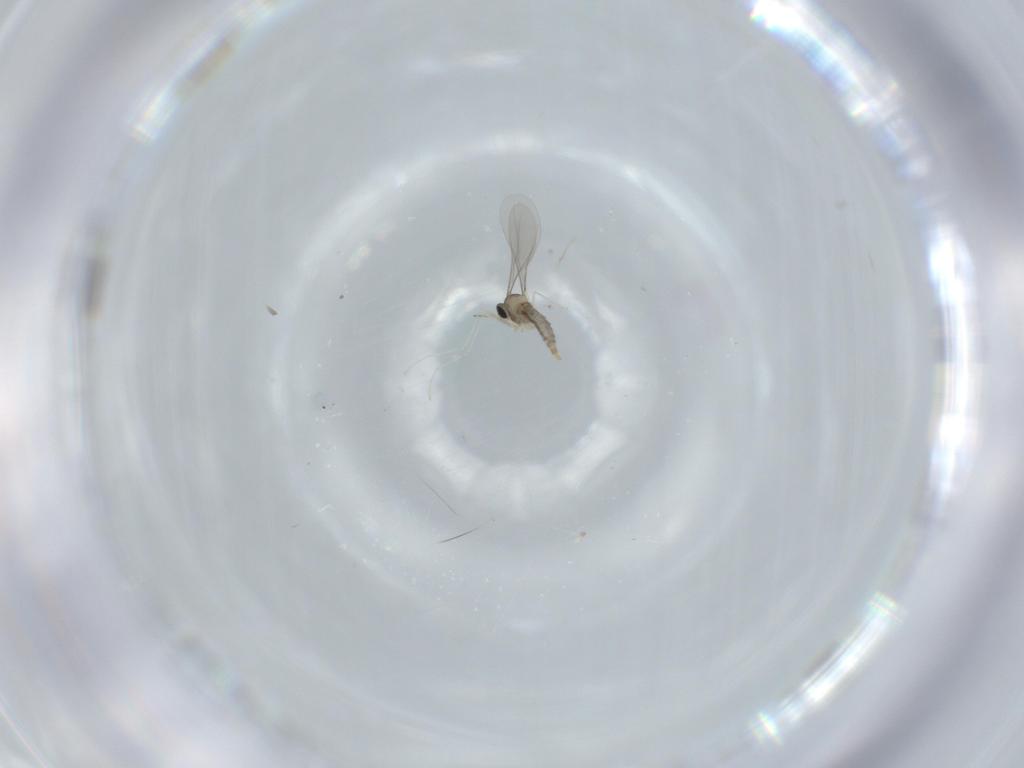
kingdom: Animalia
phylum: Arthropoda
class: Insecta
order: Diptera
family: Cecidomyiidae
